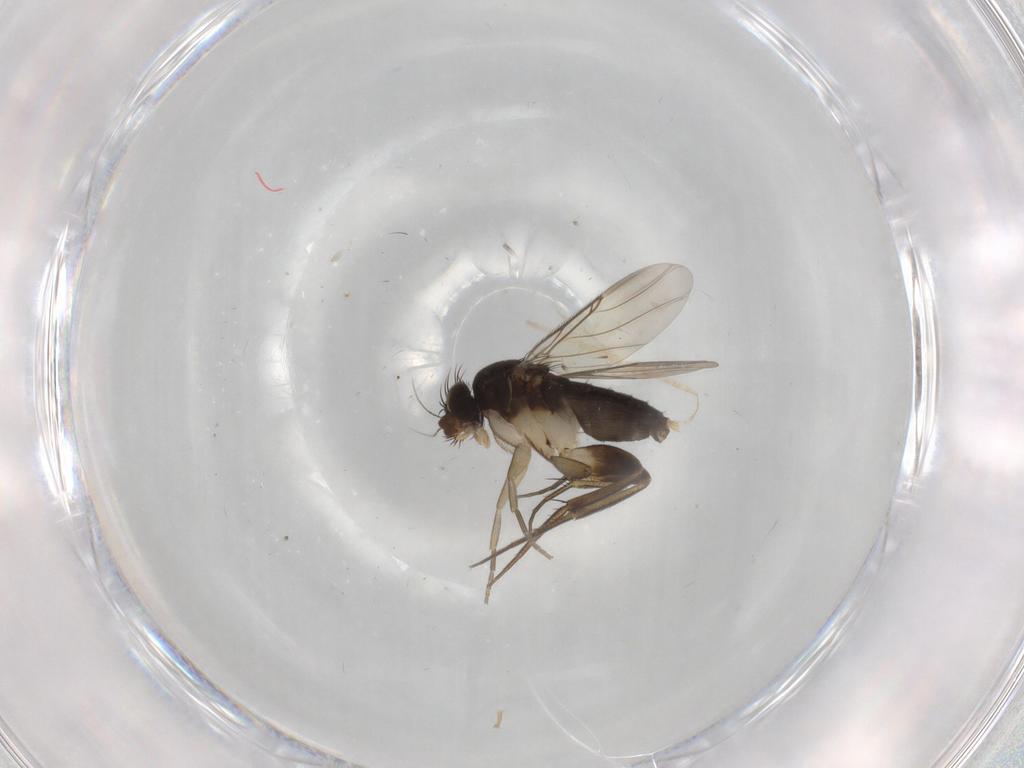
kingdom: Animalia
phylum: Arthropoda
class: Insecta
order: Diptera
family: Phoridae
